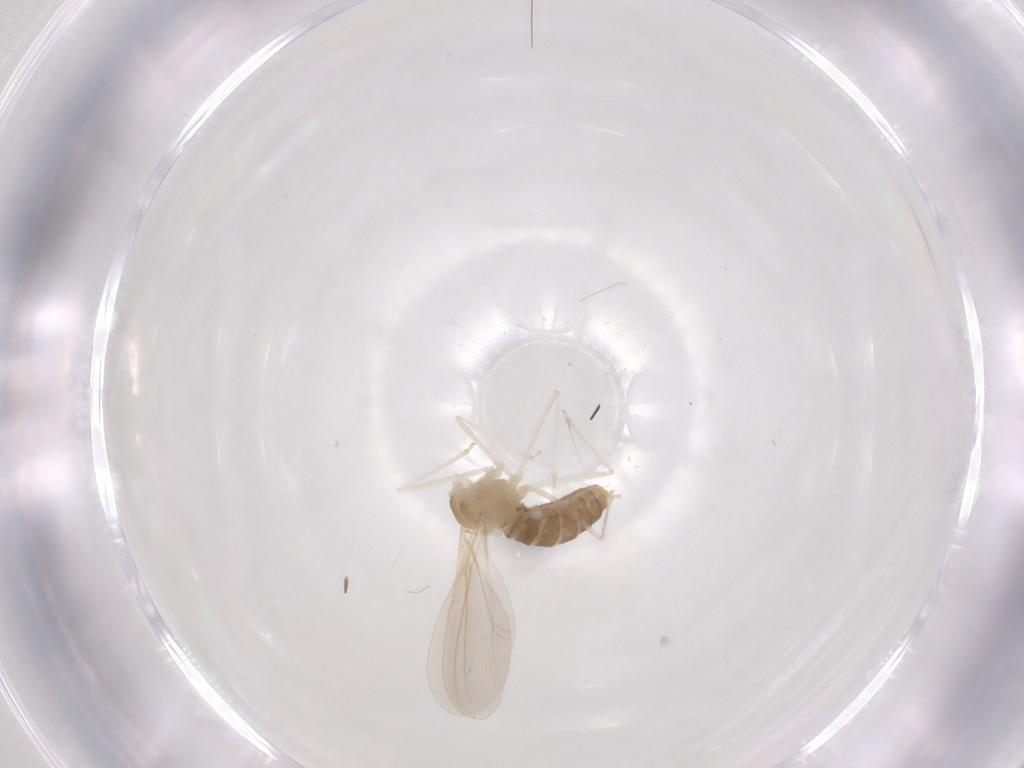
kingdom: Animalia
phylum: Arthropoda
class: Insecta
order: Diptera
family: Cecidomyiidae
